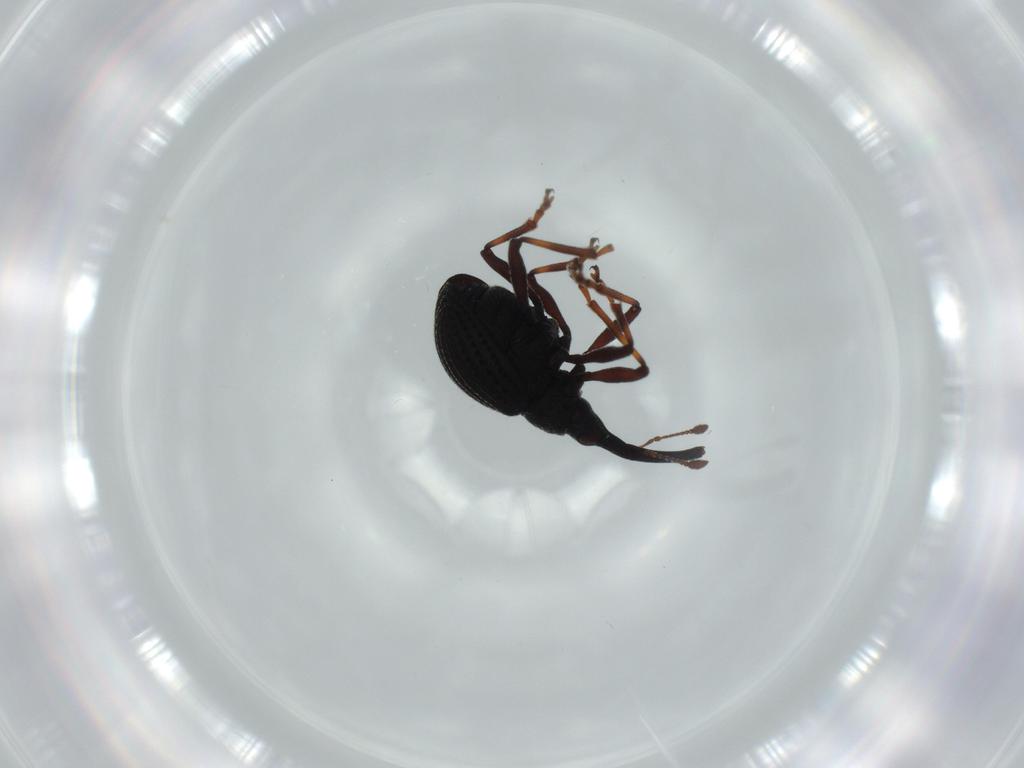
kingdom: Animalia
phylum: Arthropoda
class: Insecta
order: Coleoptera
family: Brentidae
